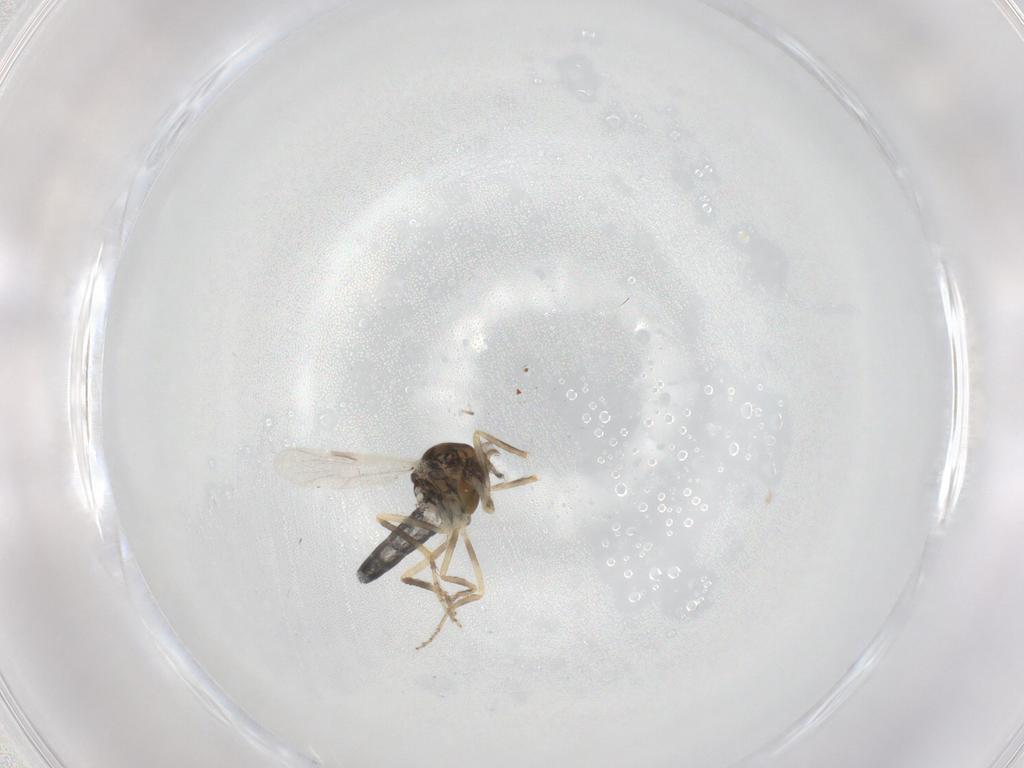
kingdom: Animalia
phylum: Arthropoda
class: Insecta
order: Diptera
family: Ceratopogonidae
